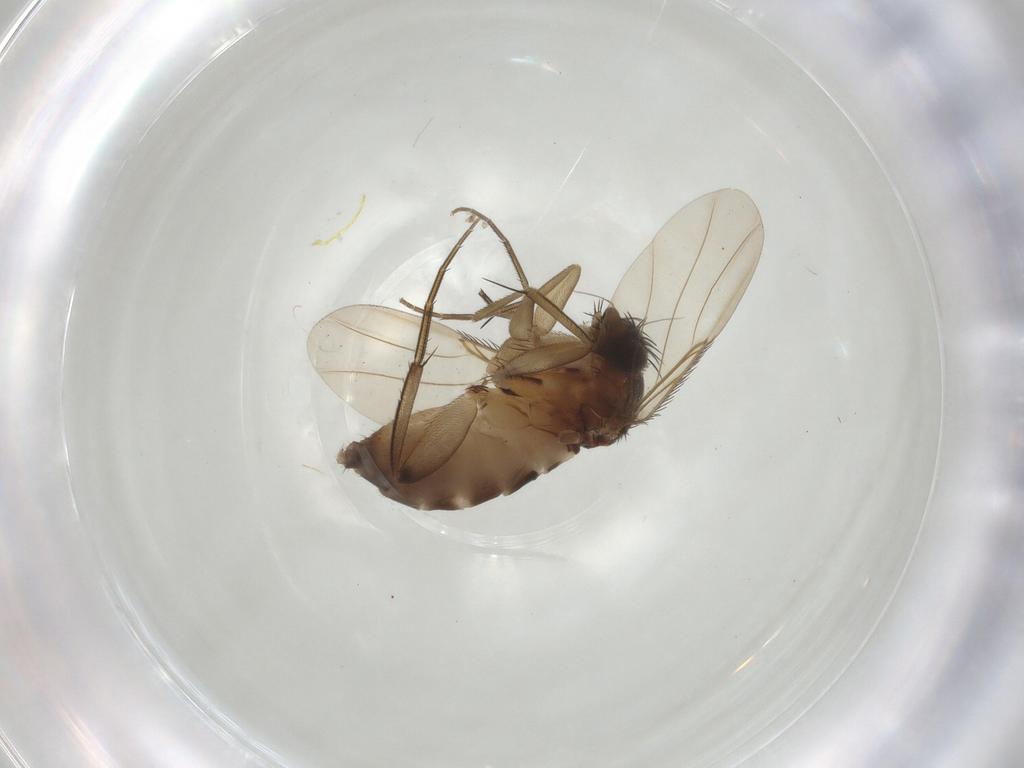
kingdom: Animalia
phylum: Arthropoda
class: Insecta
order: Diptera
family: Phoridae
